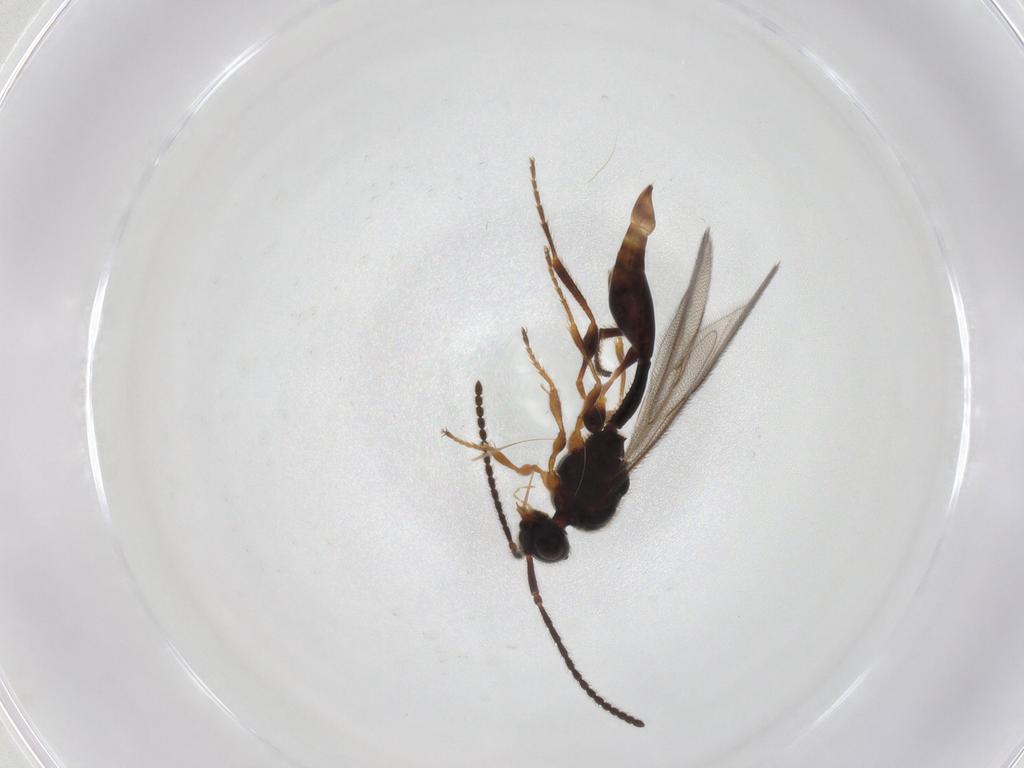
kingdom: Animalia
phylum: Arthropoda
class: Insecta
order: Hymenoptera
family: Diapriidae
